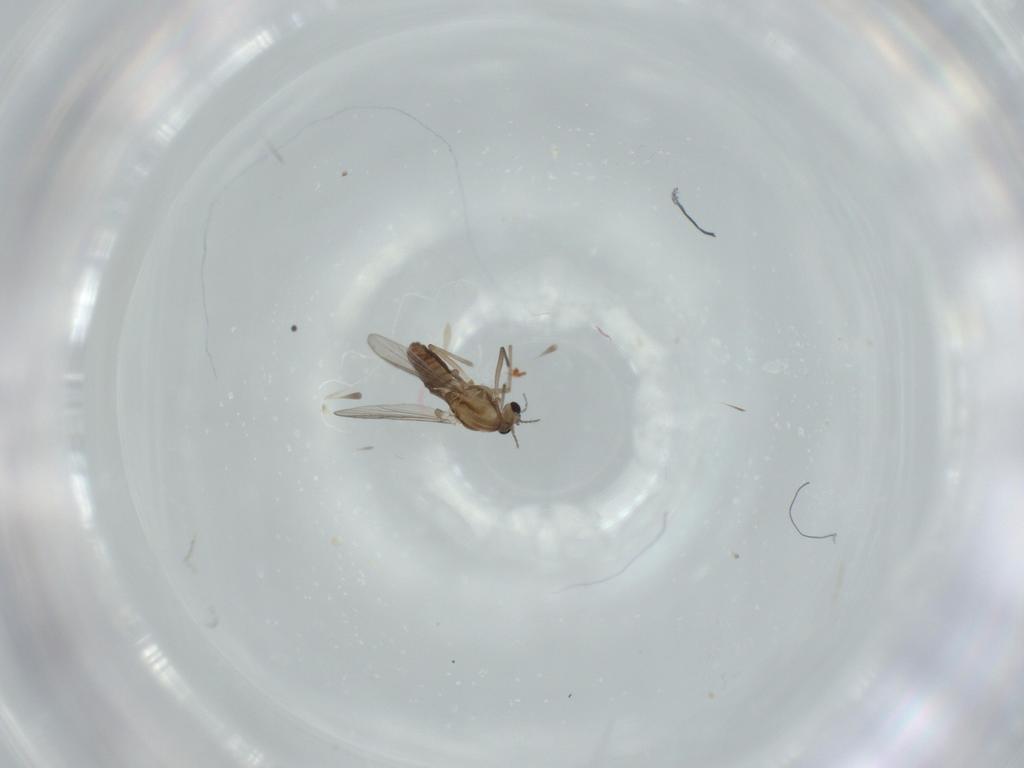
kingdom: Animalia
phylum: Arthropoda
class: Insecta
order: Diptera
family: Chironomidae
